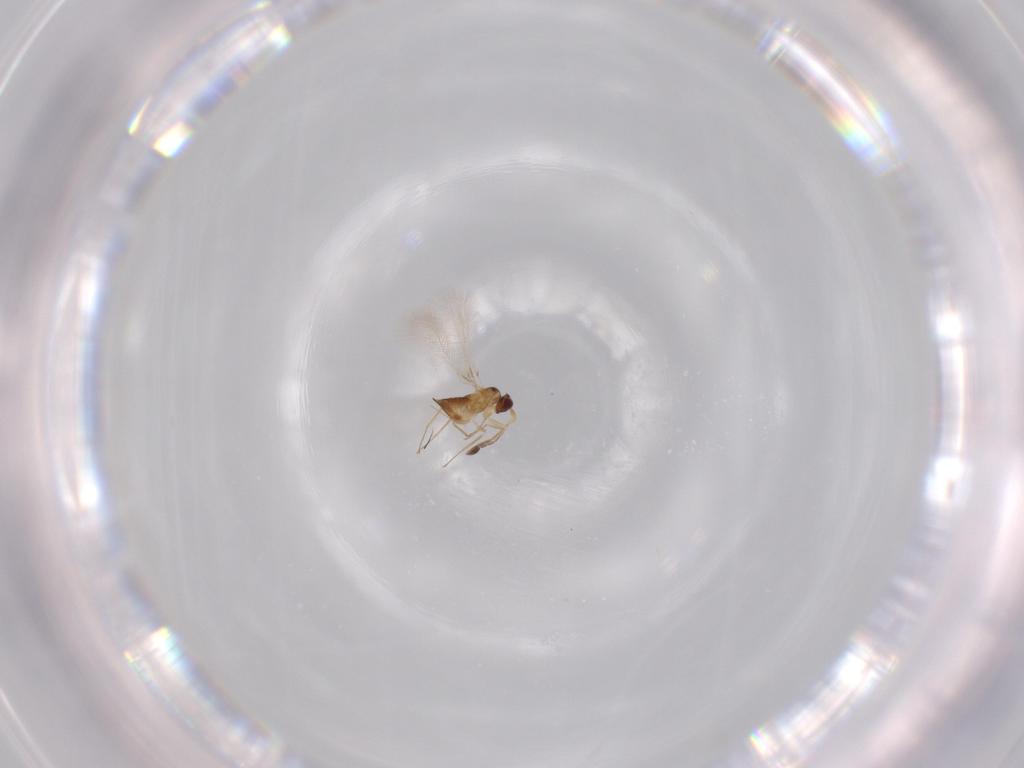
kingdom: Animalia
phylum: Arthropoda
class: Insecta
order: Hymenoptera
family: Mymaridae
